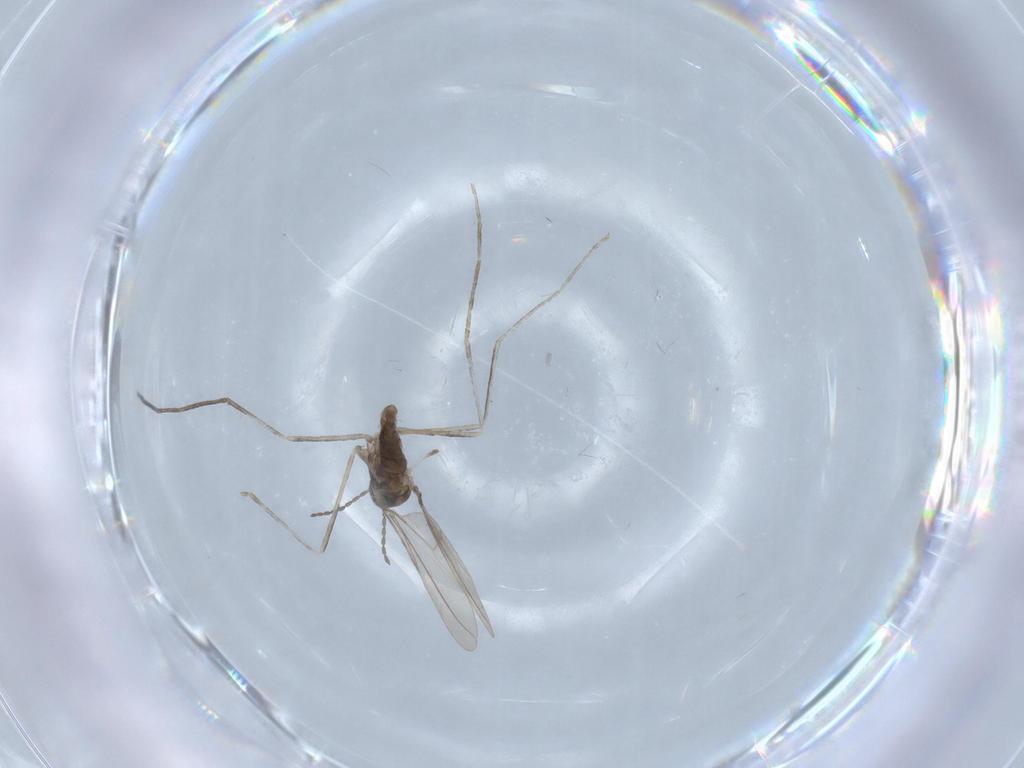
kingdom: Animalia
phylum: Arthropoda
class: Insecta
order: Diptera
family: Cecidomyiidae
